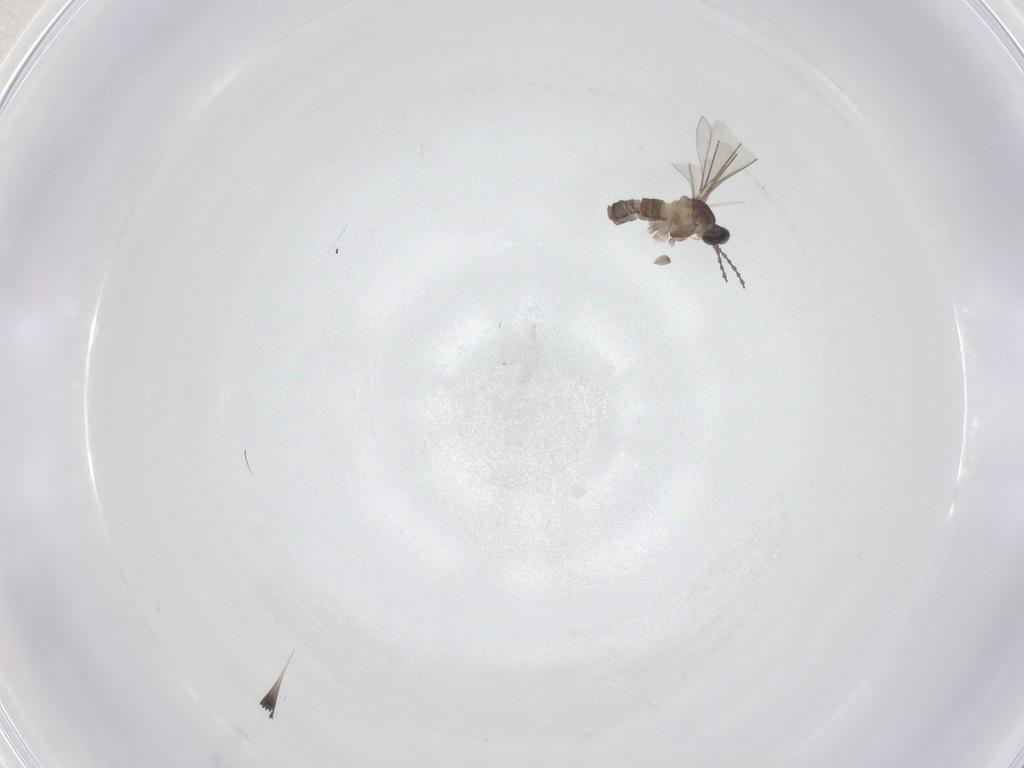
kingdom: Animalia
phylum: Arthropoda
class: Insecta
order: Diptera
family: Cecidomyiidae
